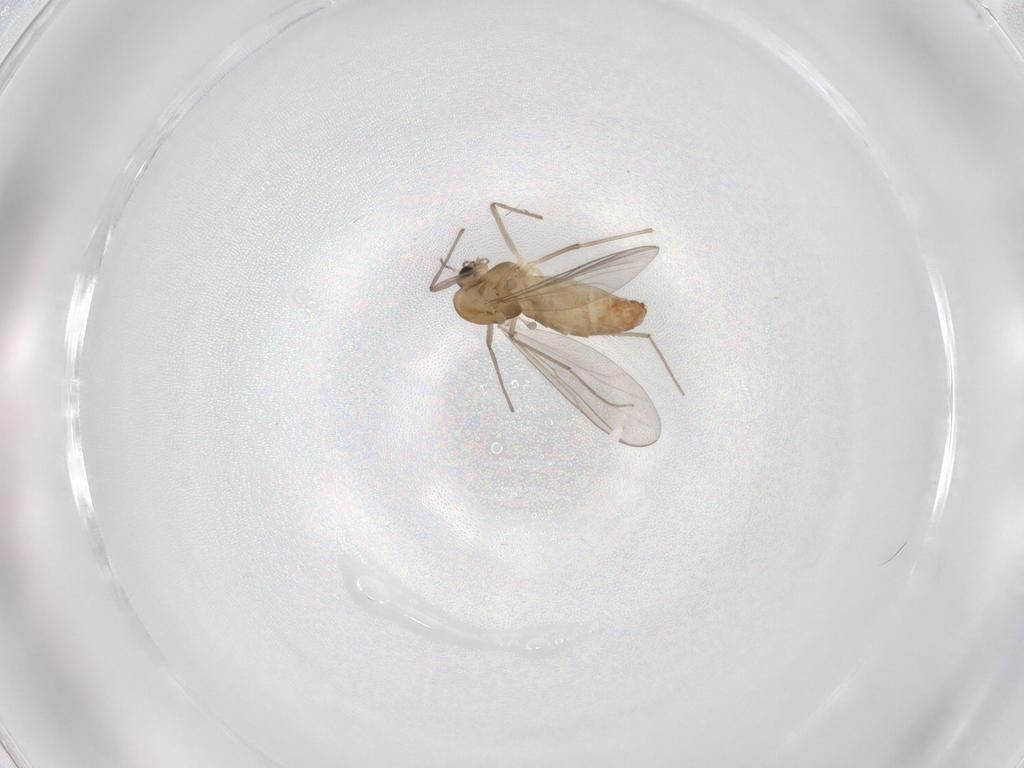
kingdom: Animalia
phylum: Arthropoda
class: Insecta
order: Diptera
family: Chironomidae
